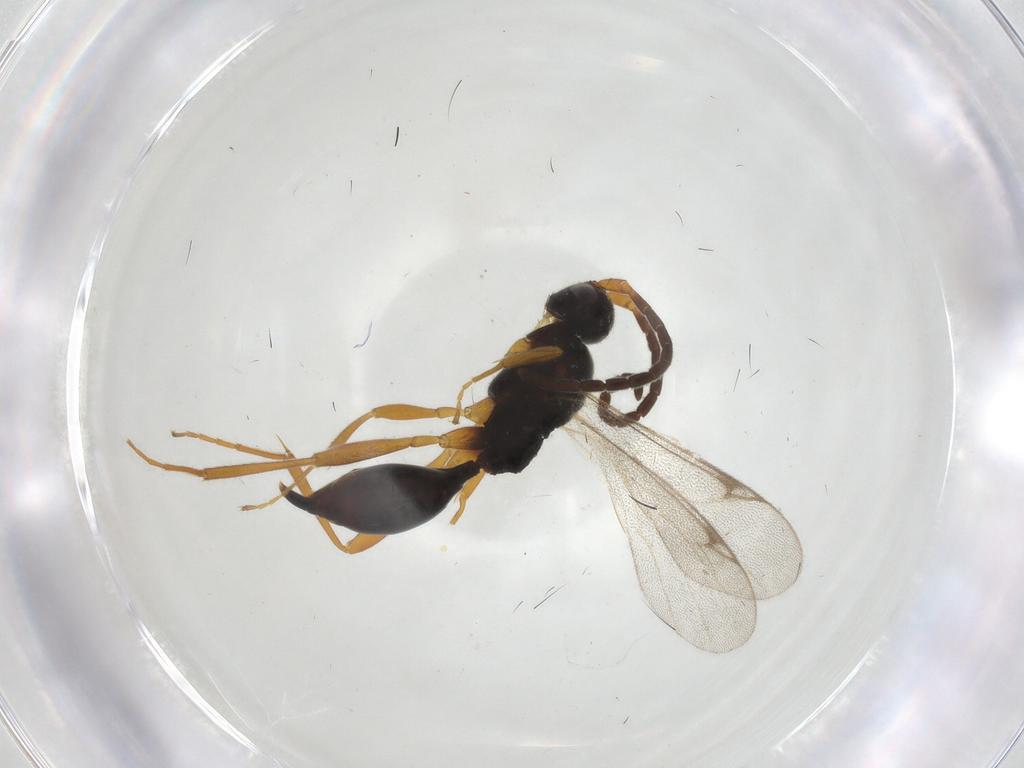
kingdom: Animalia
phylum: Arthropoda
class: Insecta
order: Hymenoptera
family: Proctotrupidae
